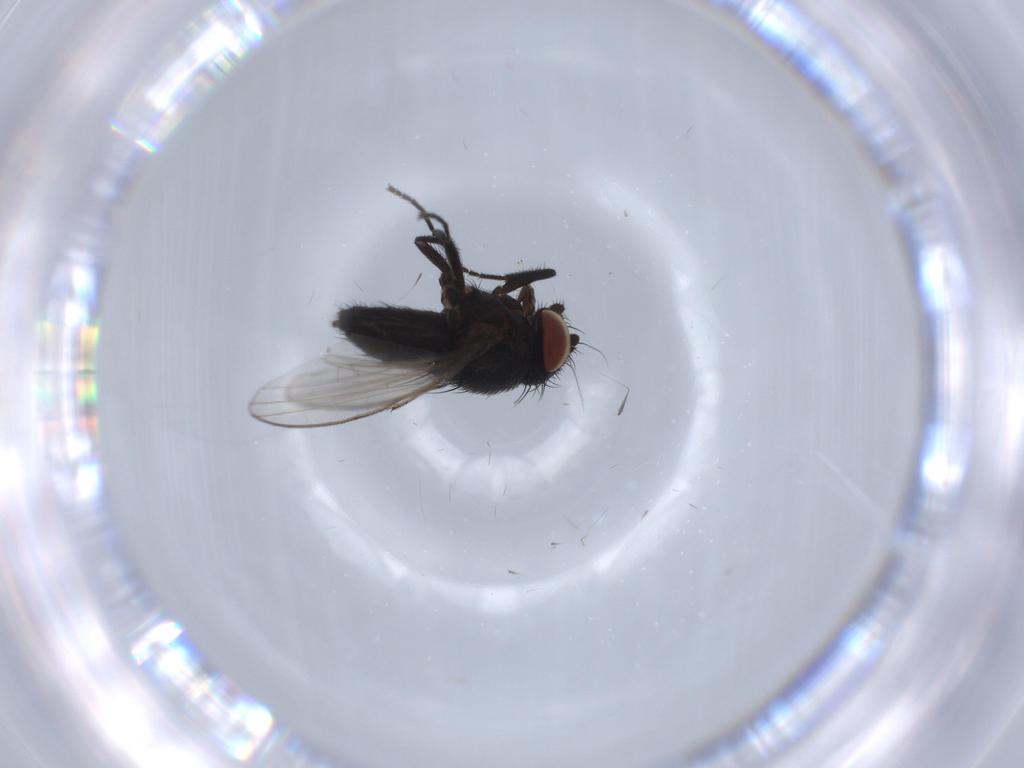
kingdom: Animalia
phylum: Arthropoda
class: Insecta
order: Diptera
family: Milichiidae
